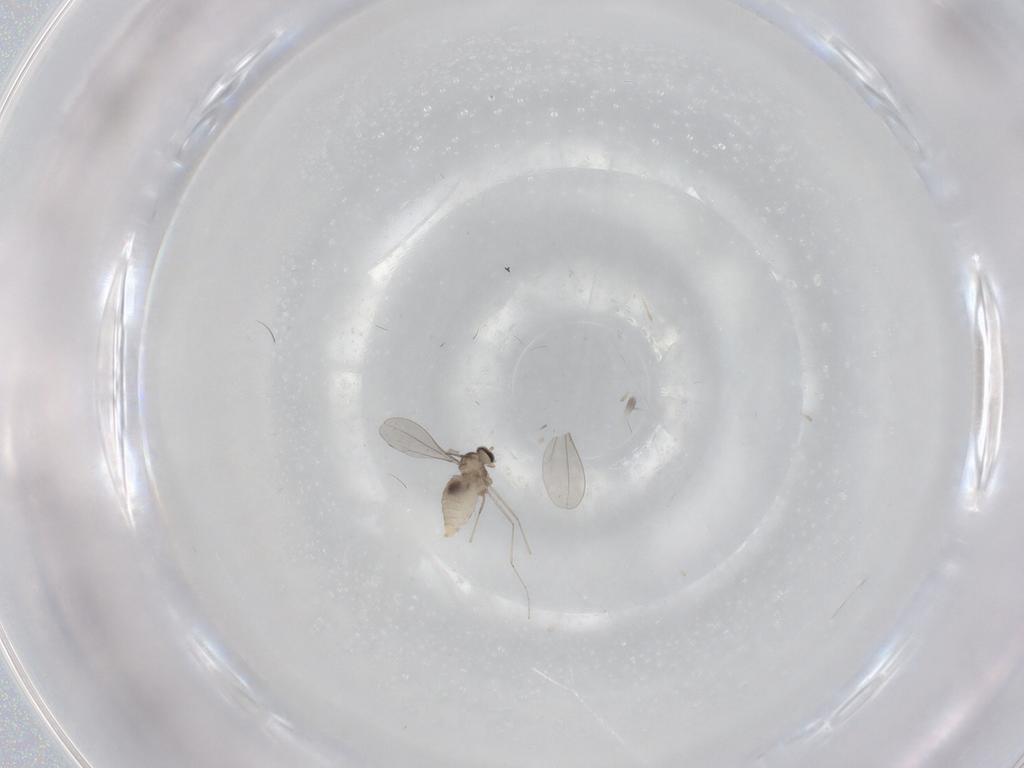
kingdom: Animalia
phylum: Arthropoda
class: Insecta
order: Diptera
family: Cecidomyiidae
